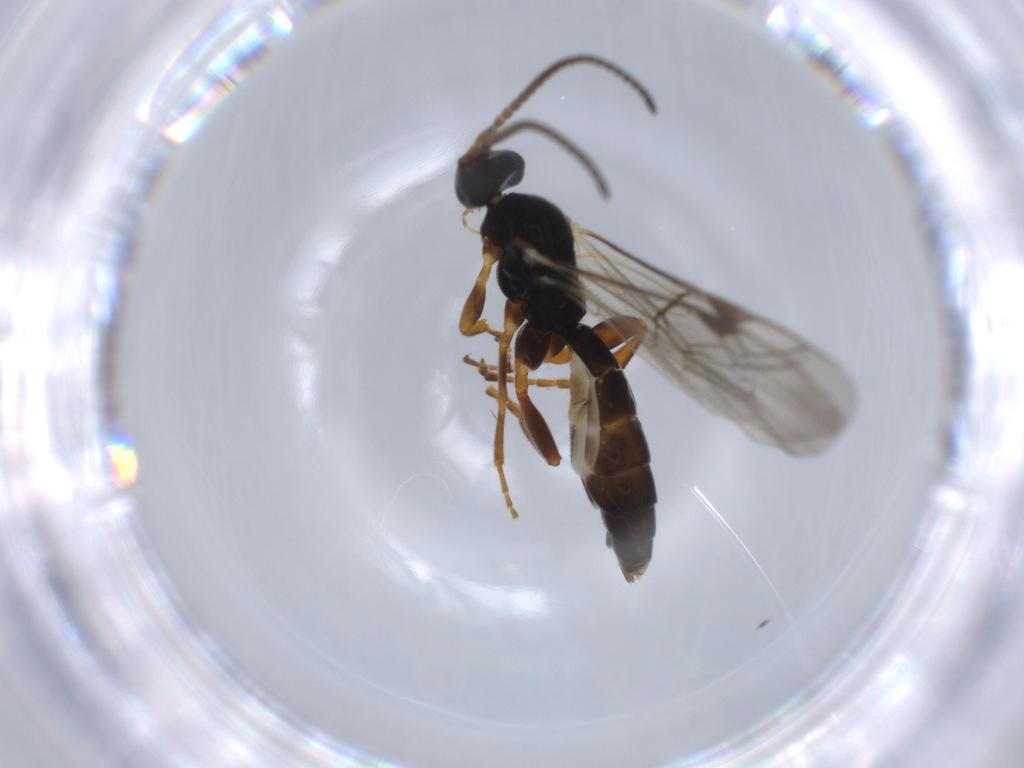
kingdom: Animalia
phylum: Arthropoda
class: Insecta
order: Hymenoptera
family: Ichneumonidae
